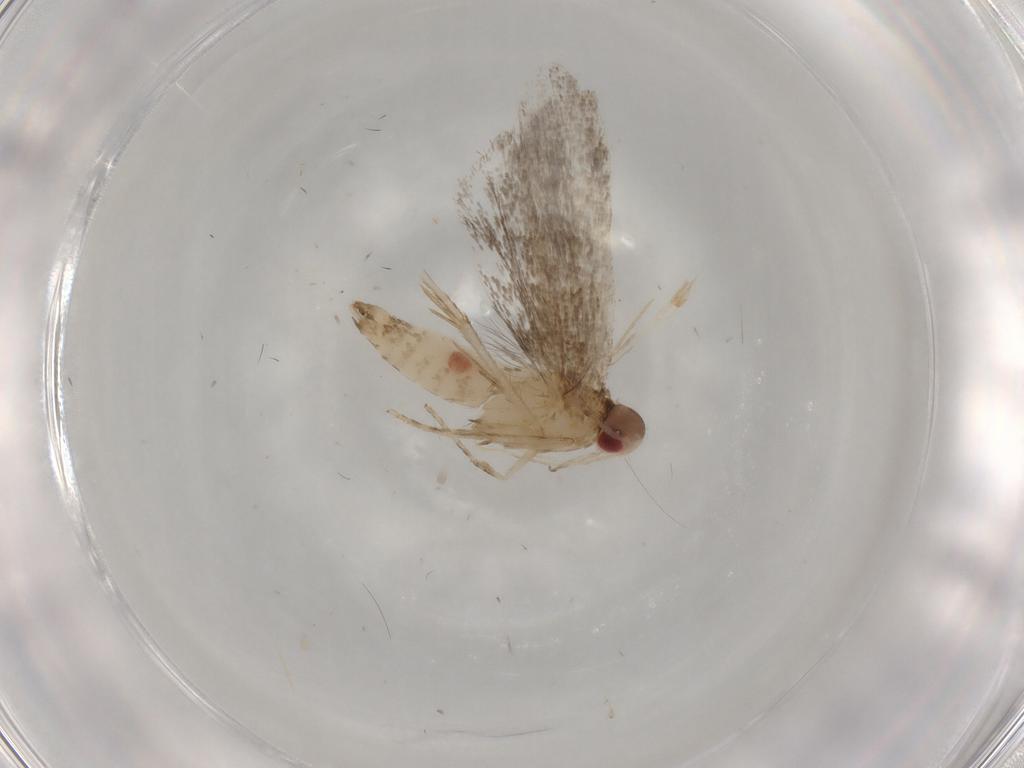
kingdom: Animalia
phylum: Arthropoda
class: Insecta
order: Lepidoptera
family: Gelechiidae
